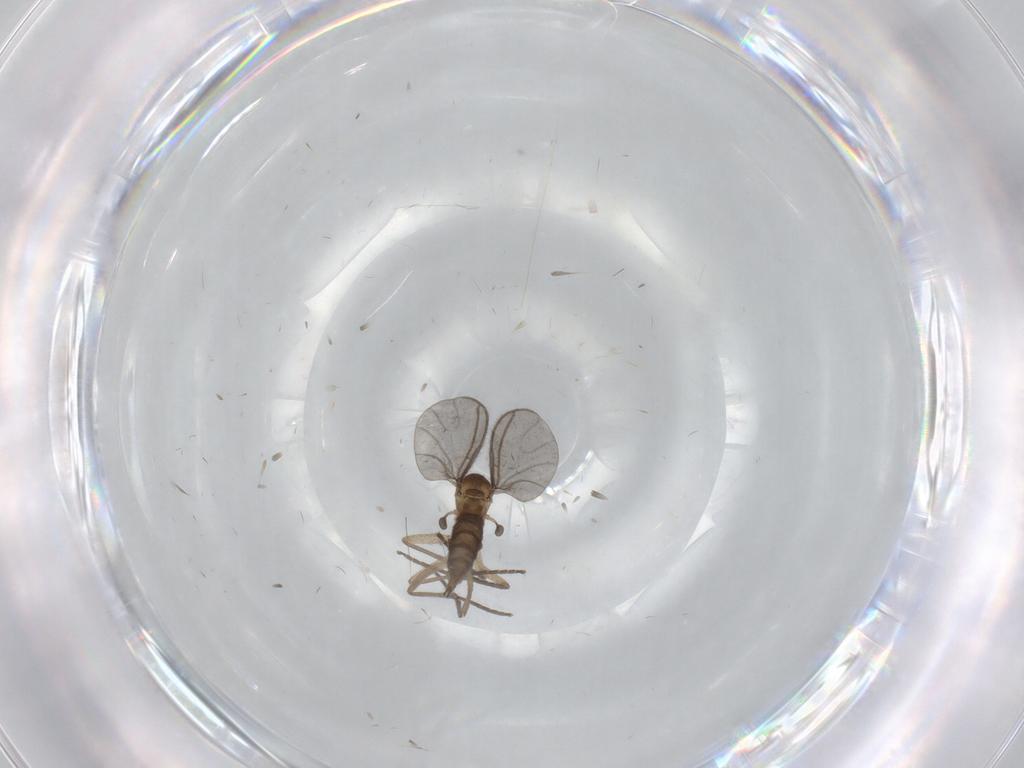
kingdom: Animalia
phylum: Arthropoda
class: Insecta
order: Diptera
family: Sciaridae
